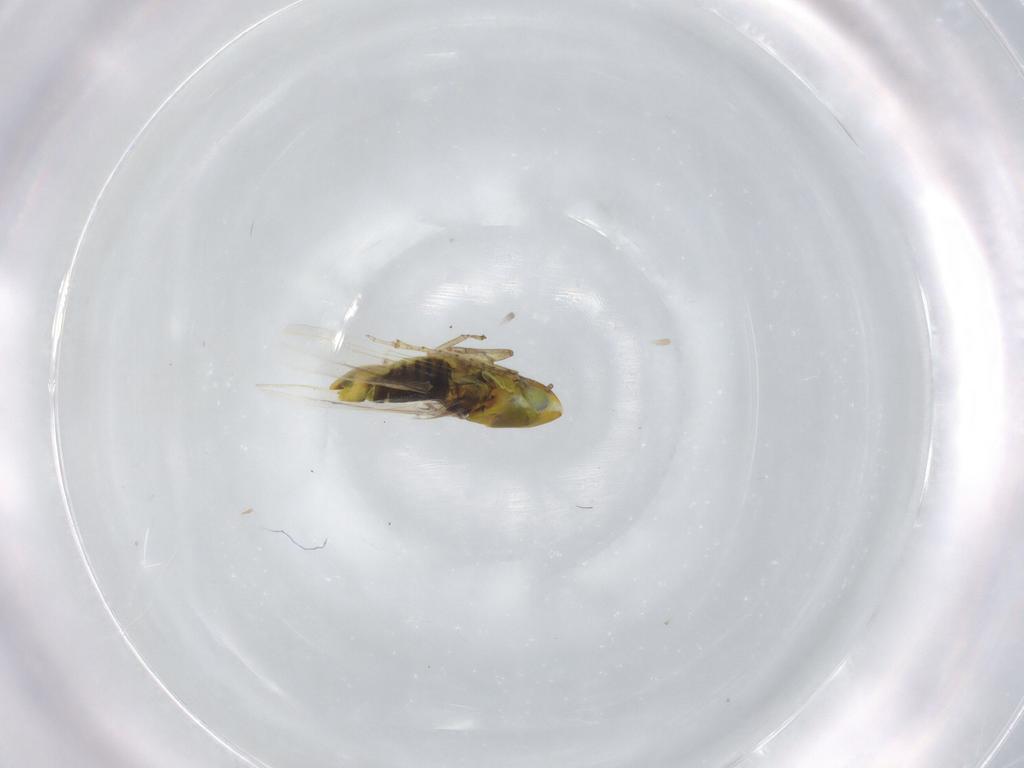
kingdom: Animalia
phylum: Arthropoda
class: Insecta
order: Hemiptera
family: Cicadellidae
